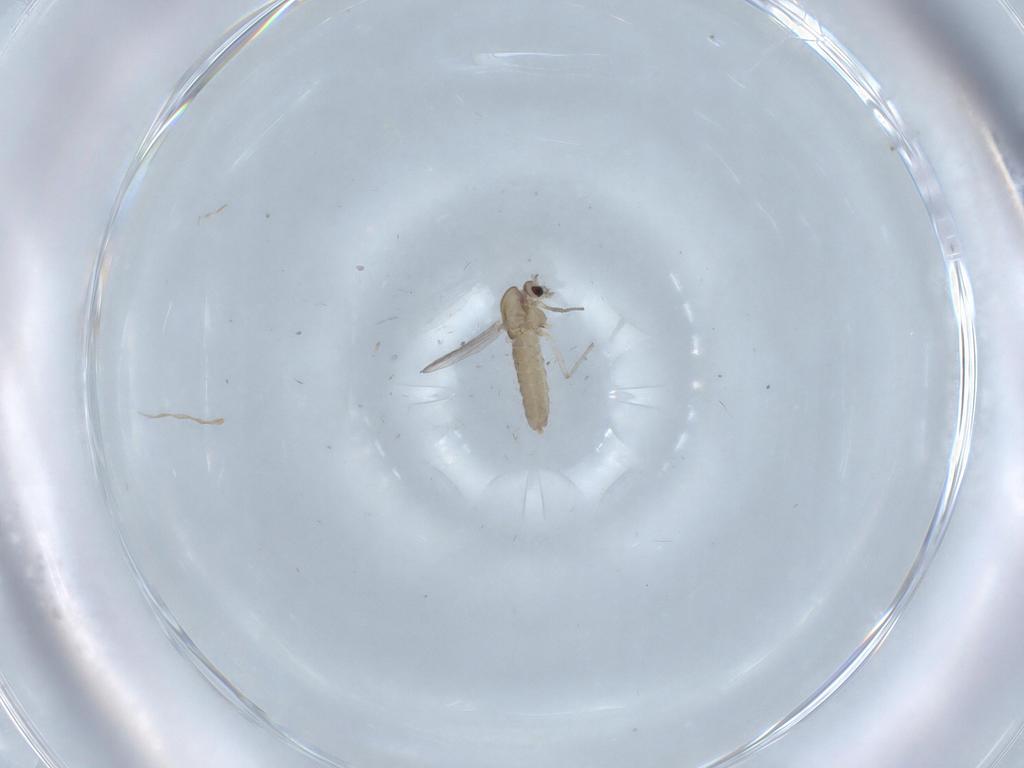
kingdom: Animalia
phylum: Arthropoda
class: Insecta
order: Diptera
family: Chironomidae
